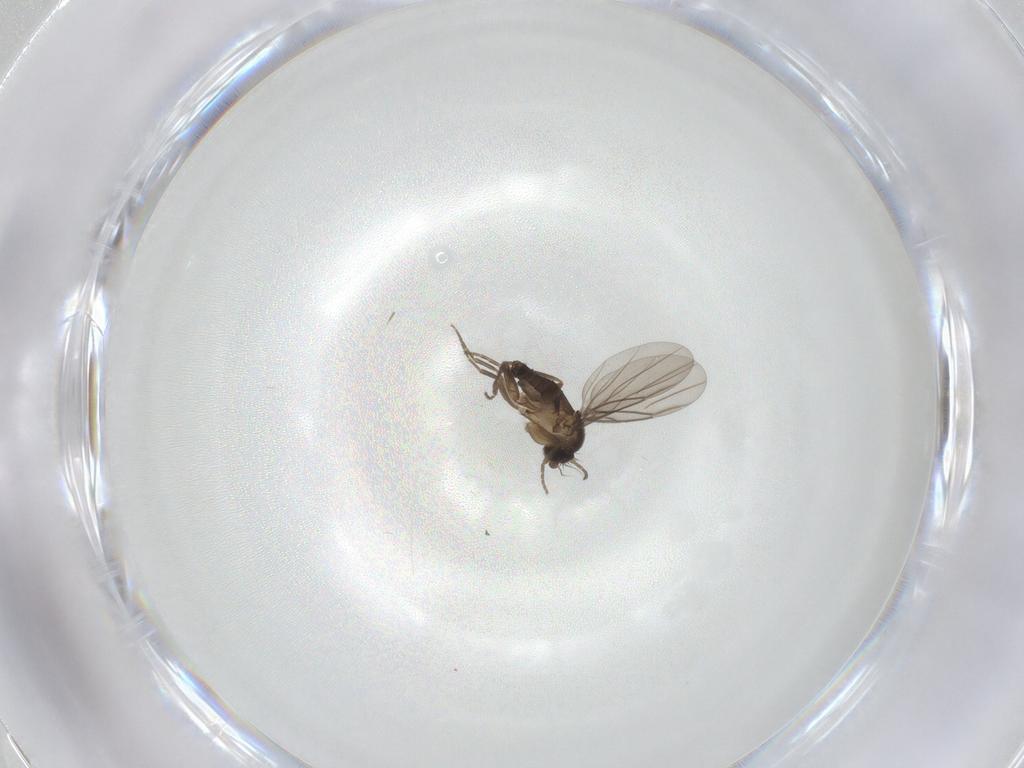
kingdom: Animalia
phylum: Arthropoda
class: Insecta
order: Diptera
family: Phoridae
